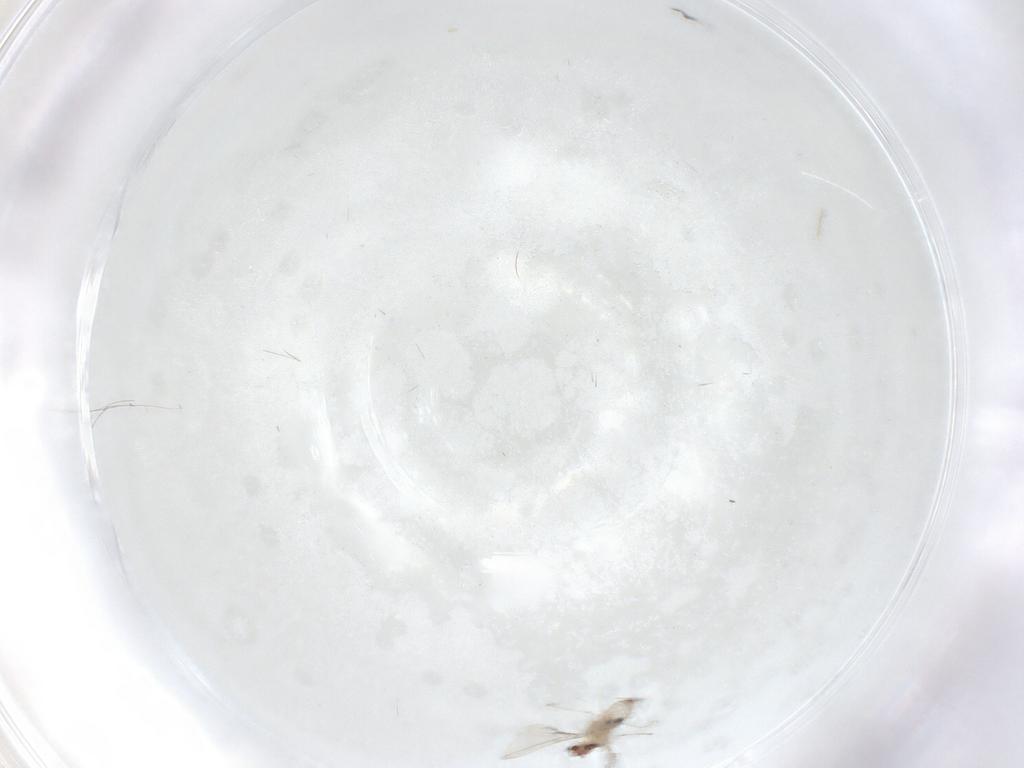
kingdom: Animalia
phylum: Arthropoda
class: Insecta
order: Diptera
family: Cecidomyiidae
